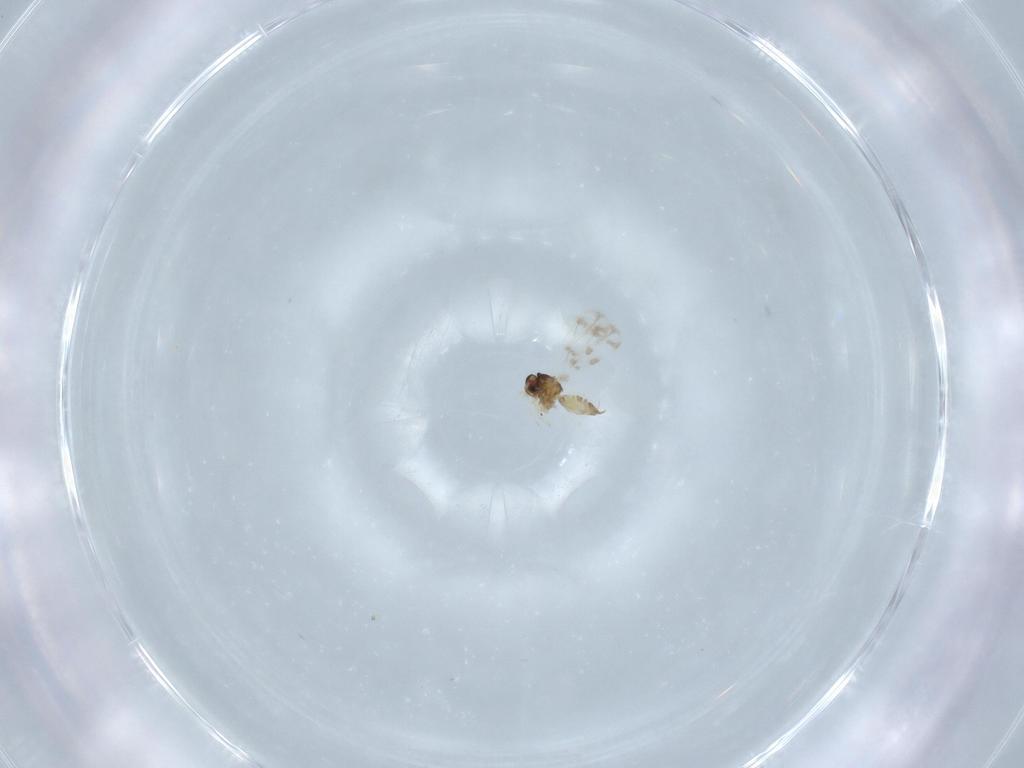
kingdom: Animalia
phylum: Arthropoda
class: Insecta
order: Hemiptera
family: Aleyrodidae
